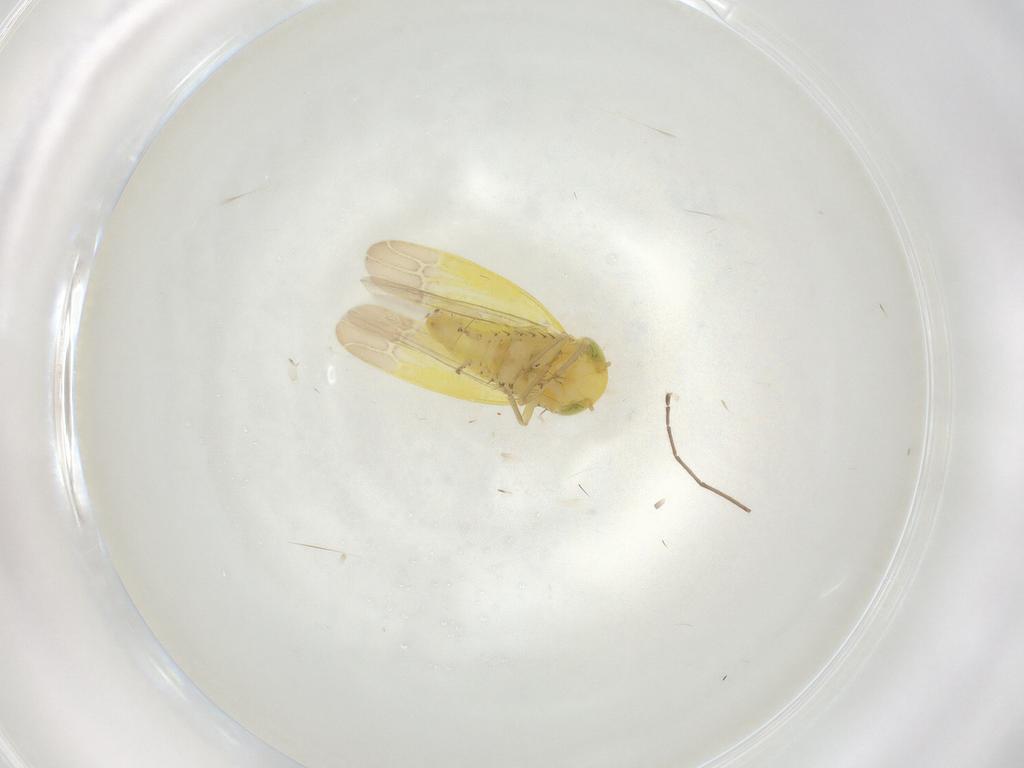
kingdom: Animalia
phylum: Arthropoda
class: Insecta
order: Hemiptera
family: Cicadellidae
